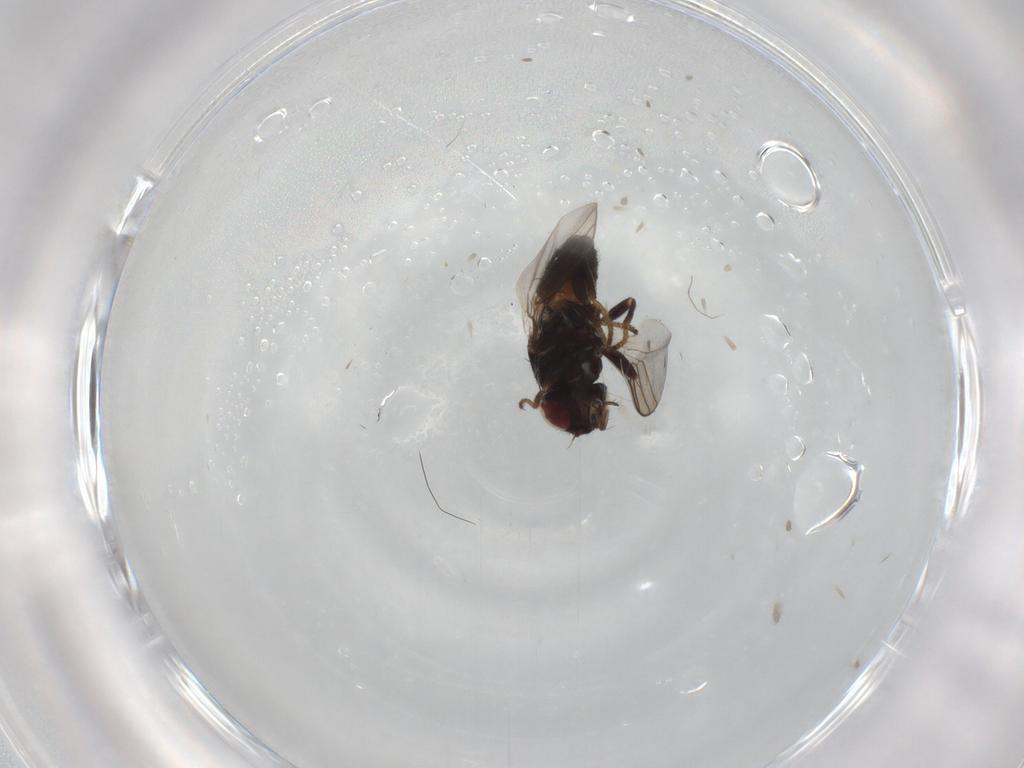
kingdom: Animalia
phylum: Arthropoda
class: Insecta
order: Diptera
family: Chloropidae
